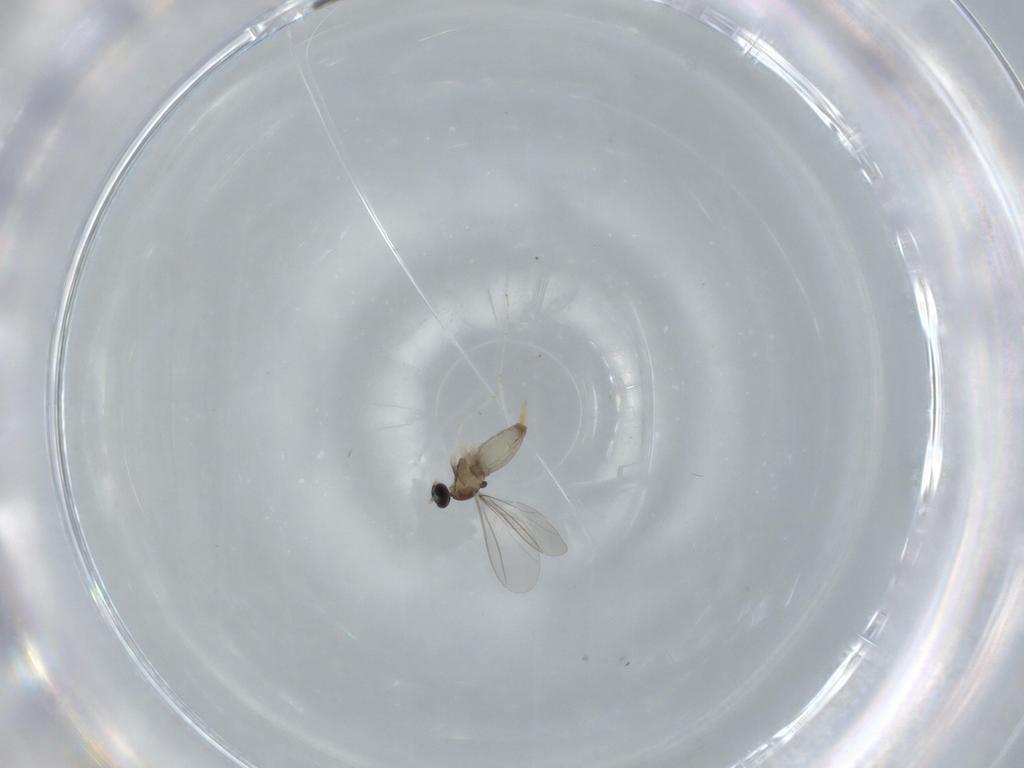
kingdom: Animalia
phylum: Arthropoda
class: Insecta
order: Diptera
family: Cecidomyiidae
